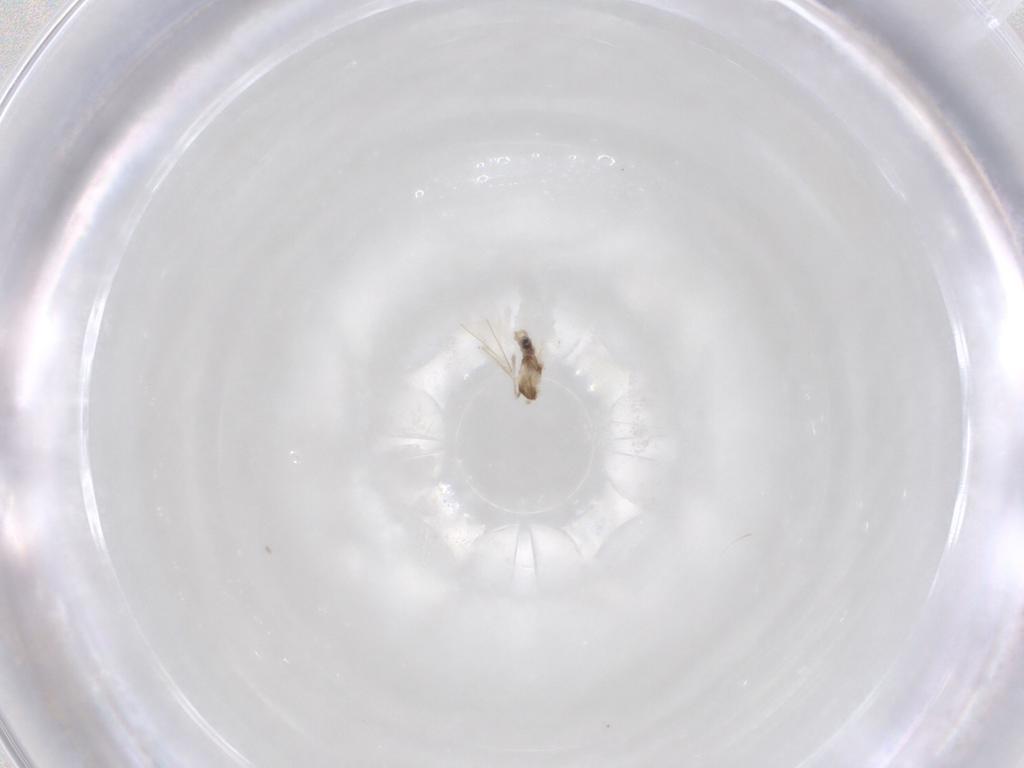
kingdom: Animalia
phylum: Arthropoda
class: Insecta
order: Diptera
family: Cecidomyiidae
